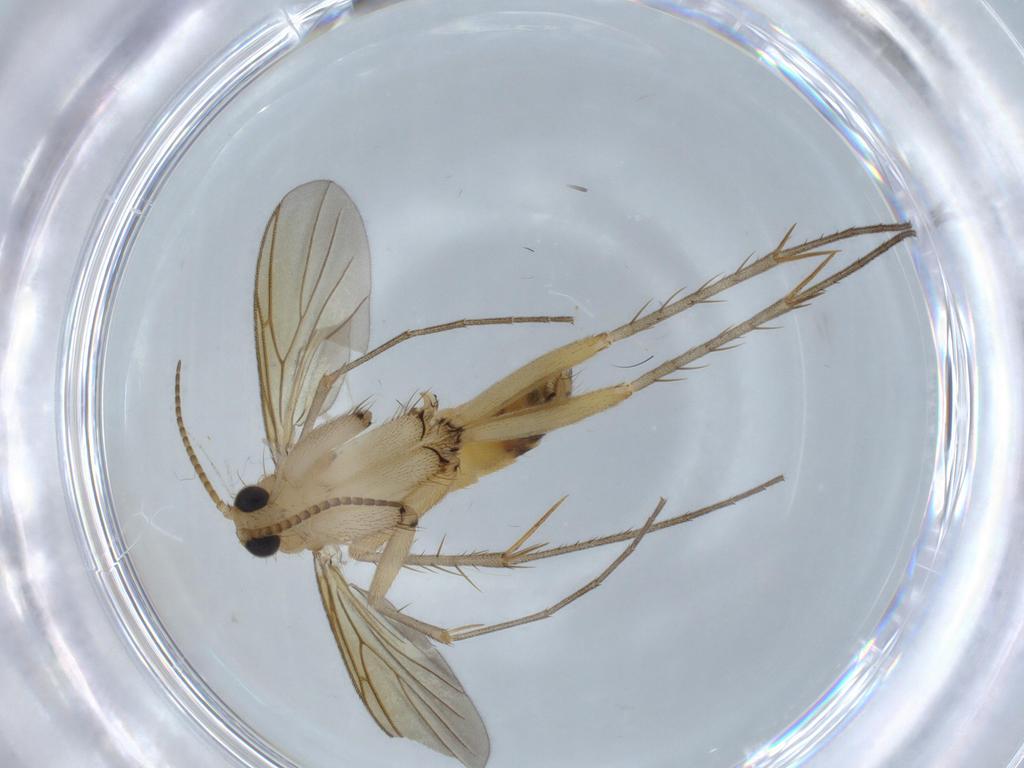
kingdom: Animalia
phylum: Arthropoda
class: Insecta
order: Diptera
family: Mycetophilidae
